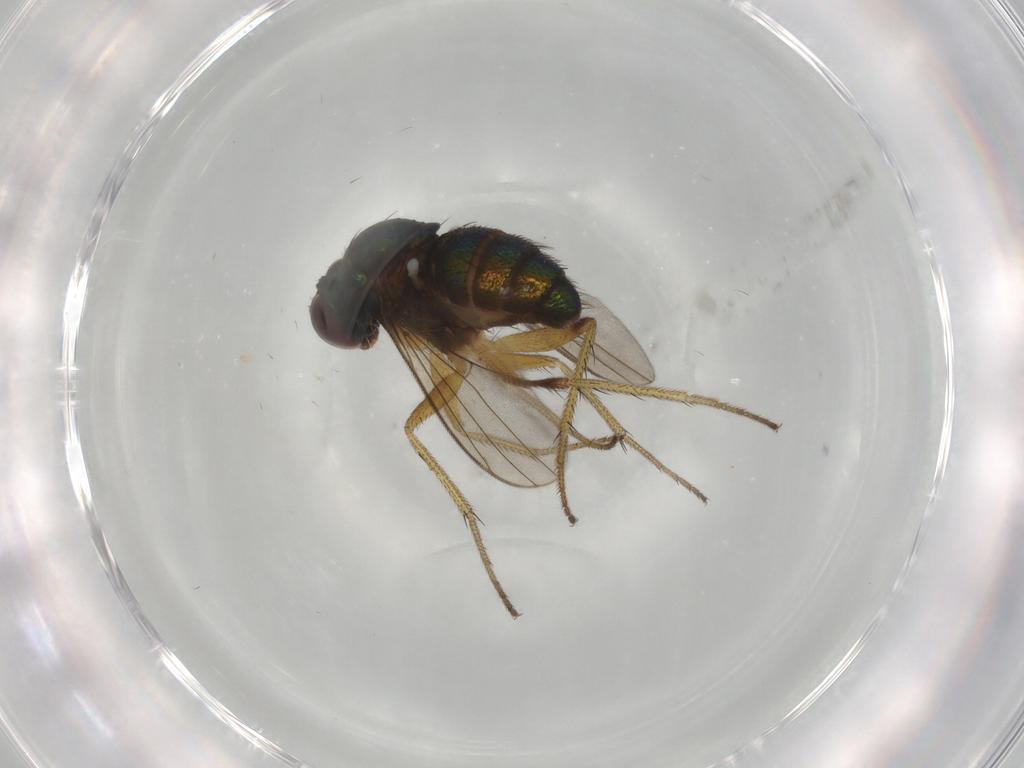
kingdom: Animalia
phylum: Arthropoda
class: Insecta
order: Diptera
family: Dolichopodidae
